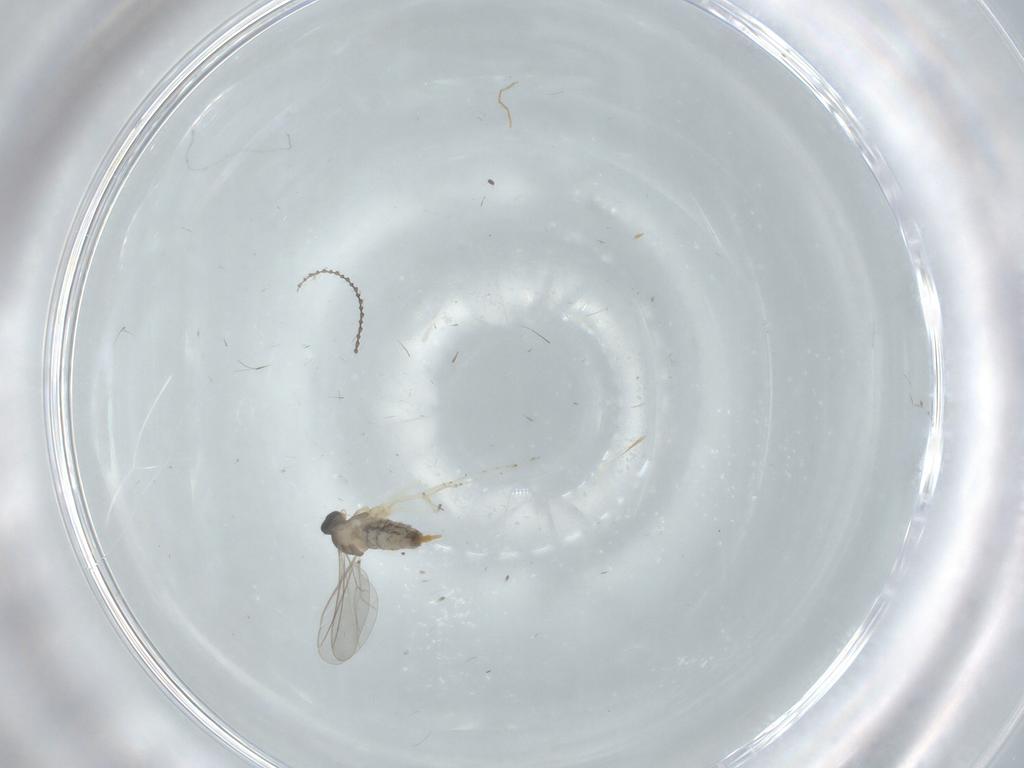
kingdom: Animalia
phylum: Arthropoda
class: Insecta
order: Diptera
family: Cecidomyiidae
